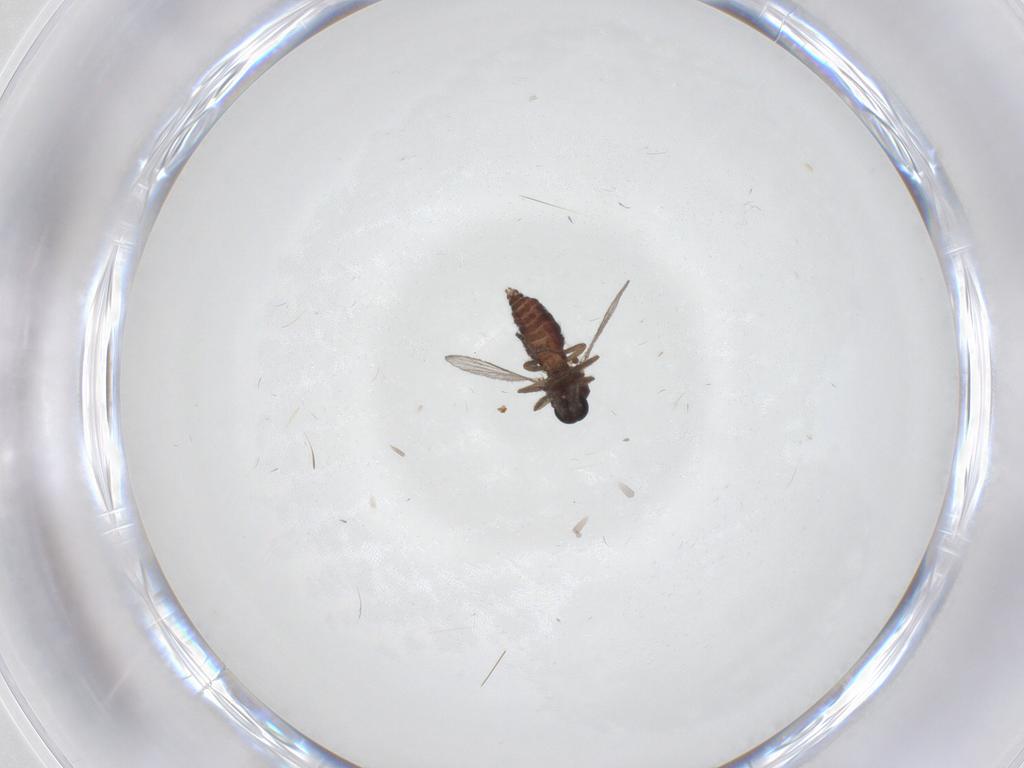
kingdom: Animalia
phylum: Arthropoda
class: Insecta
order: Diptera
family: Ceratopogonidae
